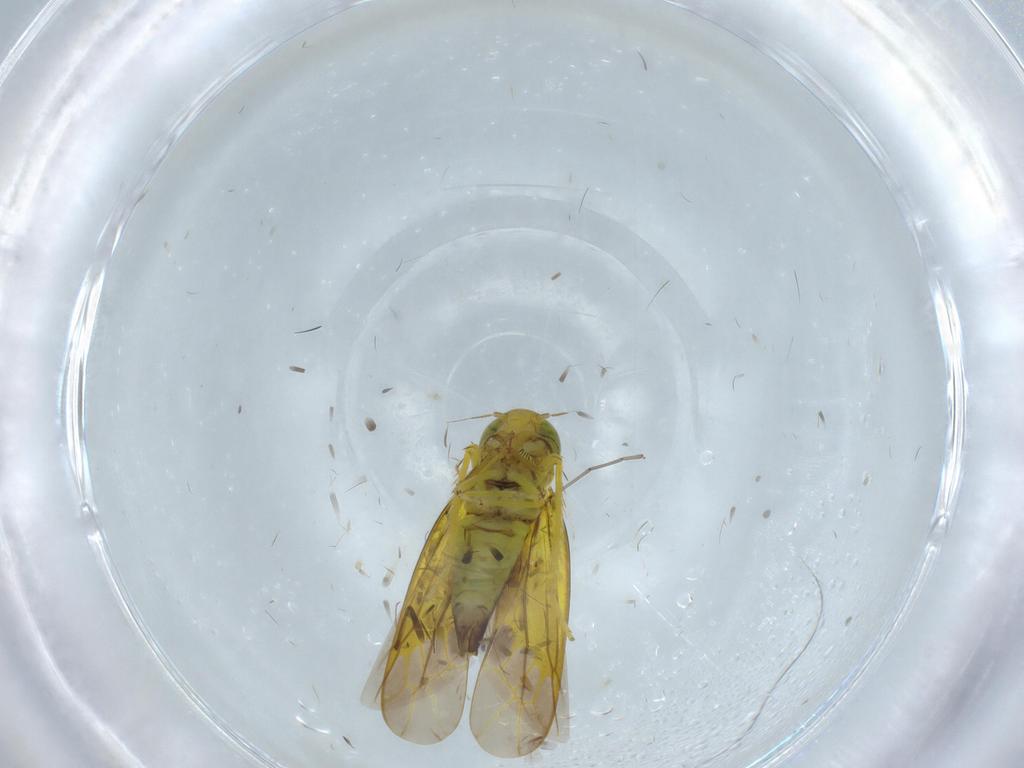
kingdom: Animalia
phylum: Arthropoda
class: Insecta
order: Hemiptera
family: Cicadellidae
